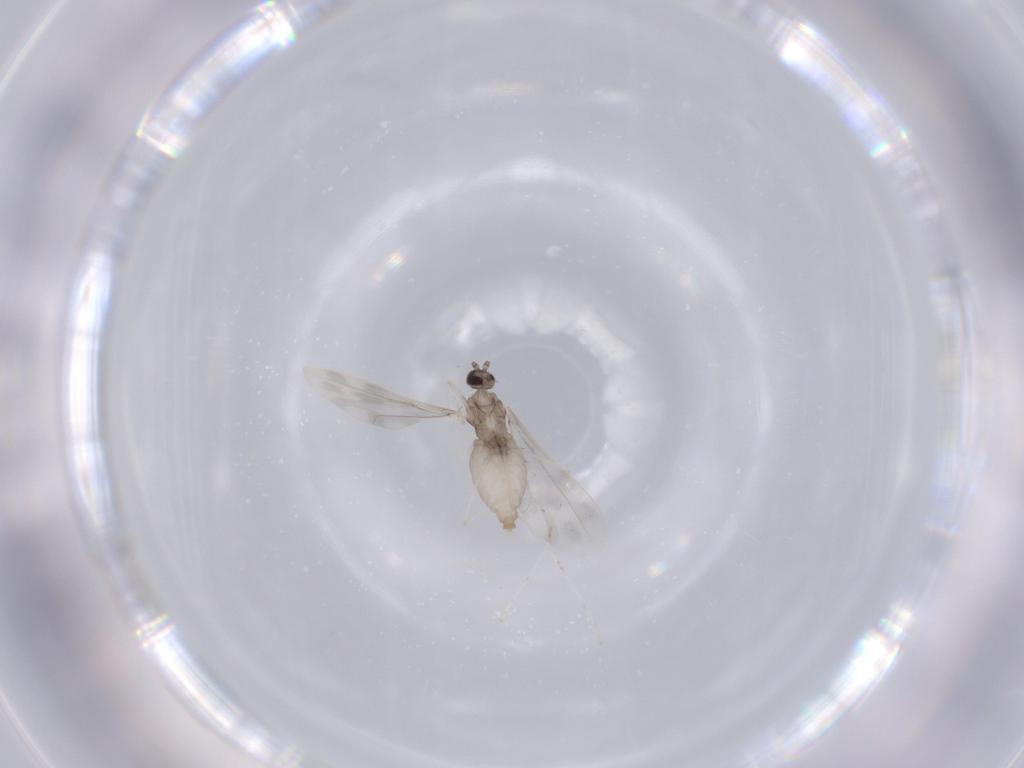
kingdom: Animalia
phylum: Arthropoda
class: Insecta
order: Diptera
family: Cecidomyiidae
